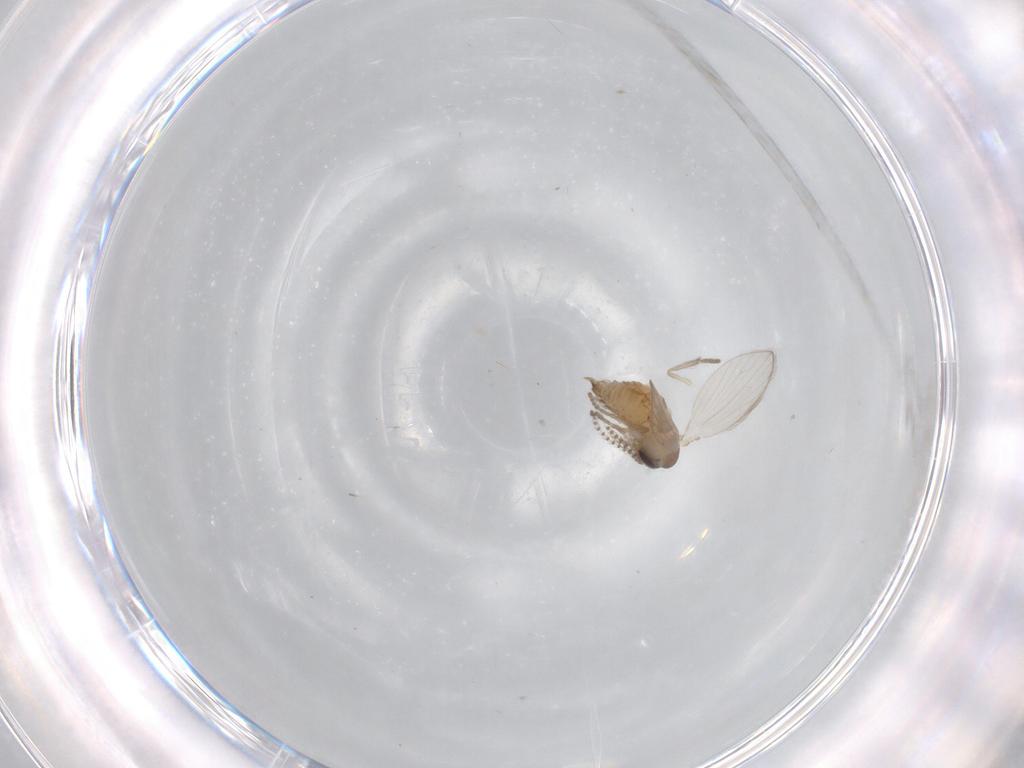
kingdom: Animalia
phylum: Arthropoda
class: Insecta
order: Diptera
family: Chironomidae
